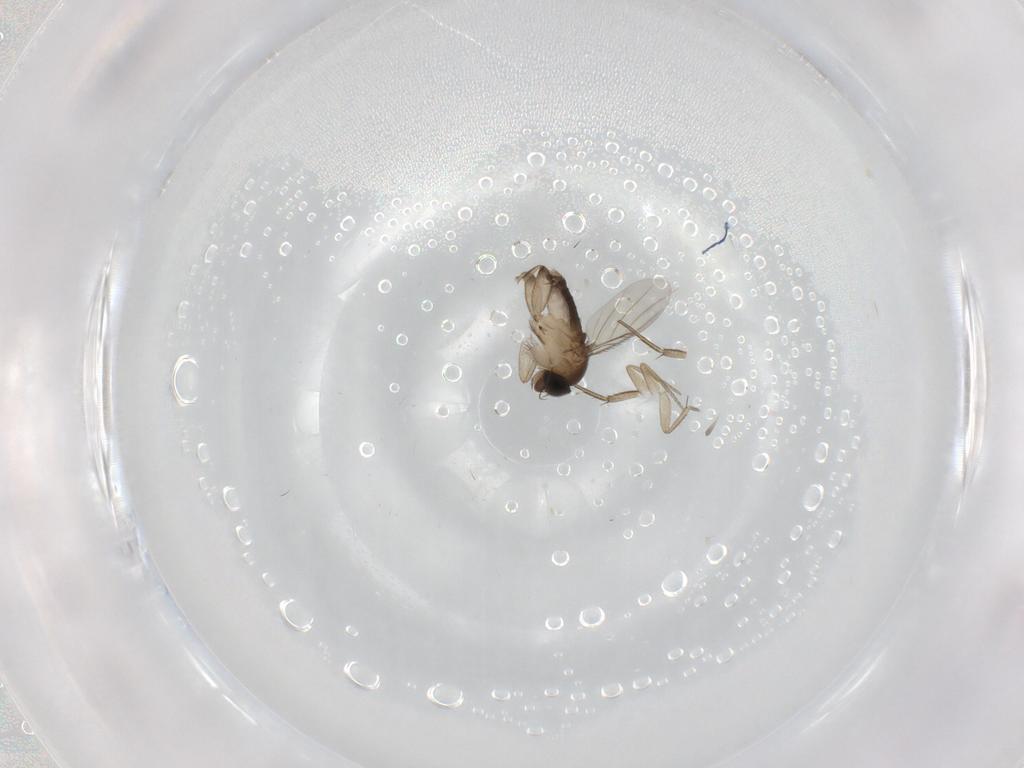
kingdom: Animalia
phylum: Arthropoda
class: Insecta
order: Diptera
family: Phoridae
